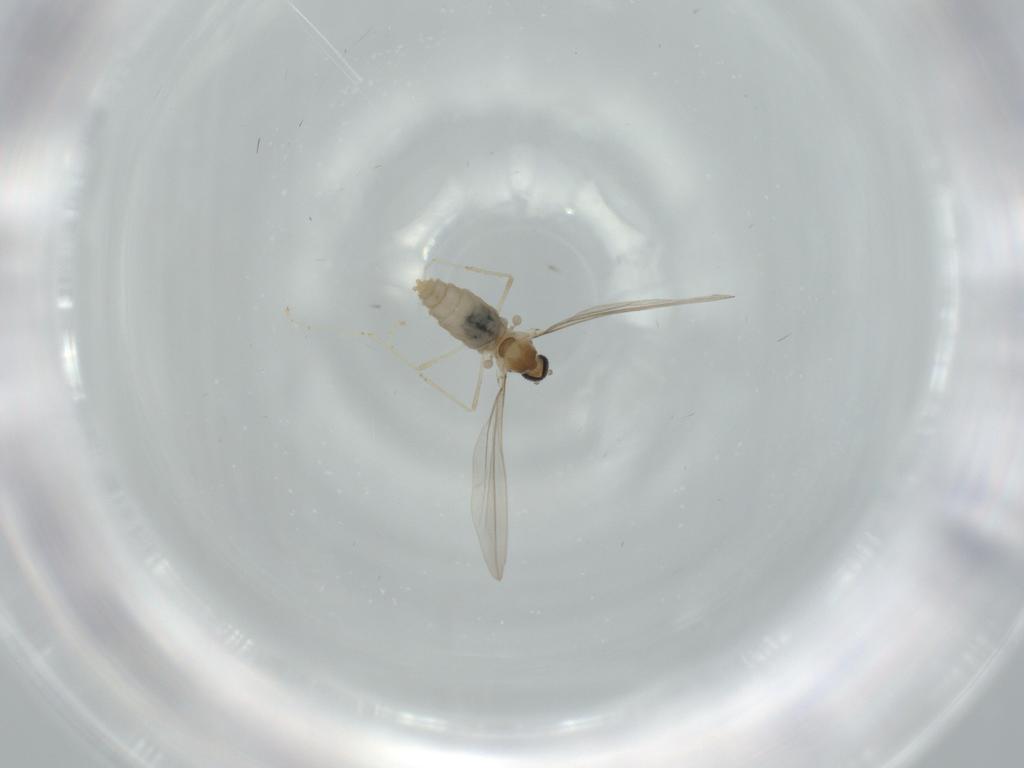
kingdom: Animalia
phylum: Arthropoda
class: Insecta
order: Diptera
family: Cecidomyiidae
